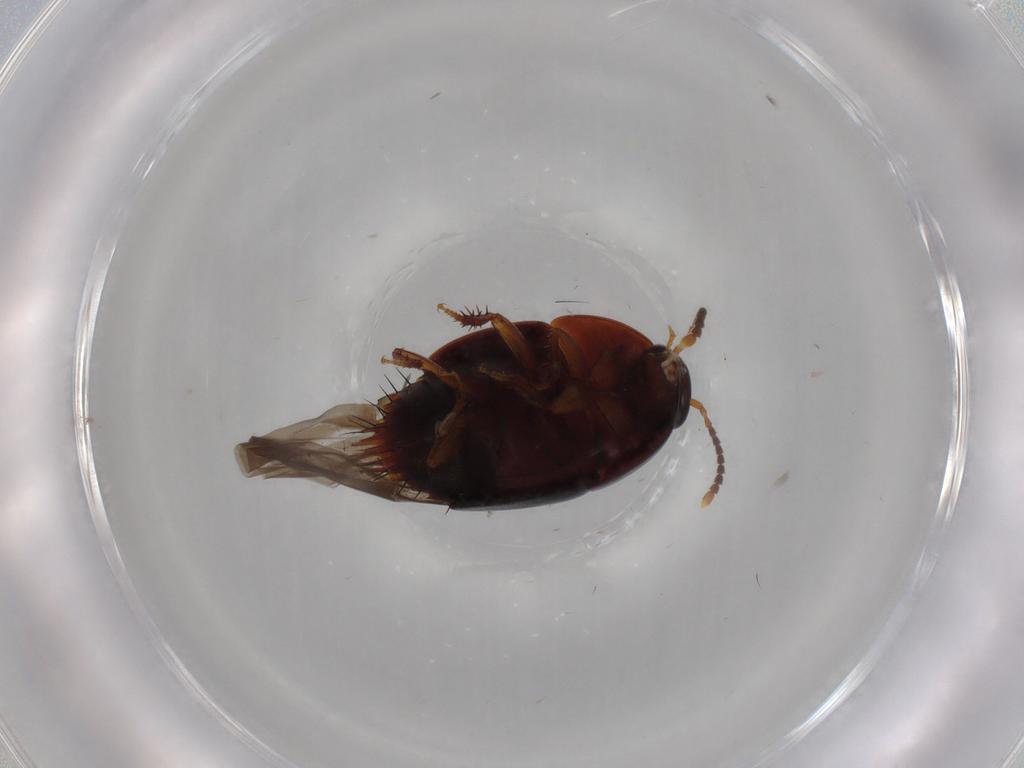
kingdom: Animalia
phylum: Arthropoda
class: Insecta
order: Coleoptera
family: Staphylinidae
